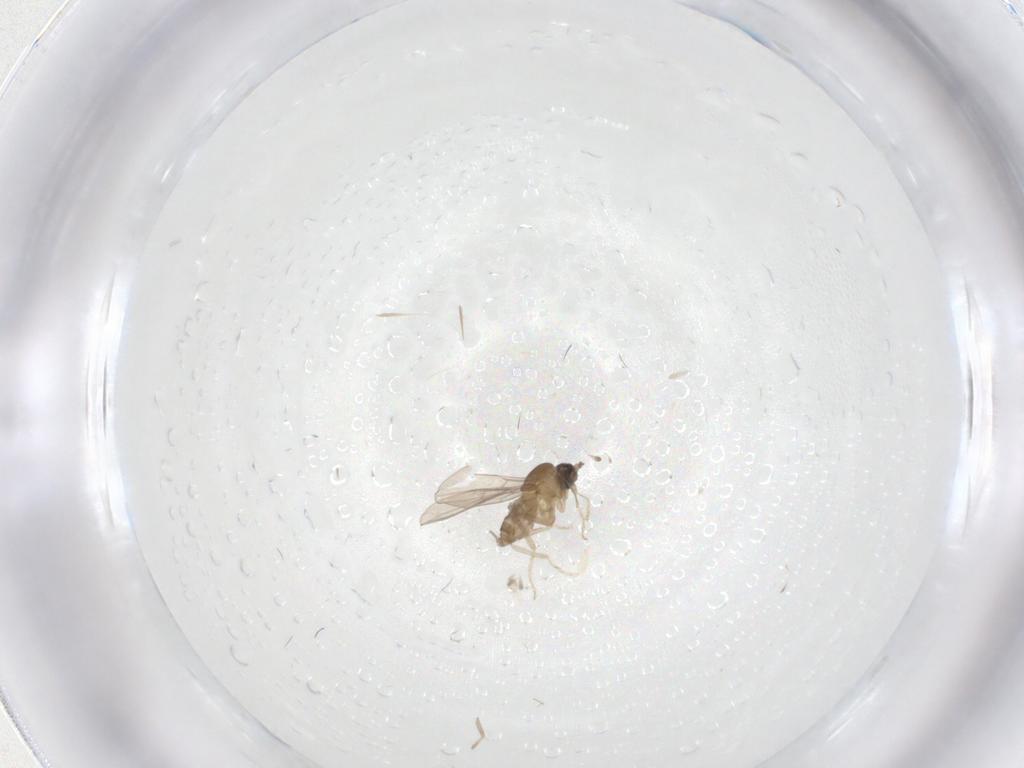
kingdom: Animalia
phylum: Arthropoda
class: Insecta
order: Diptera
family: Cecidomyiidae
